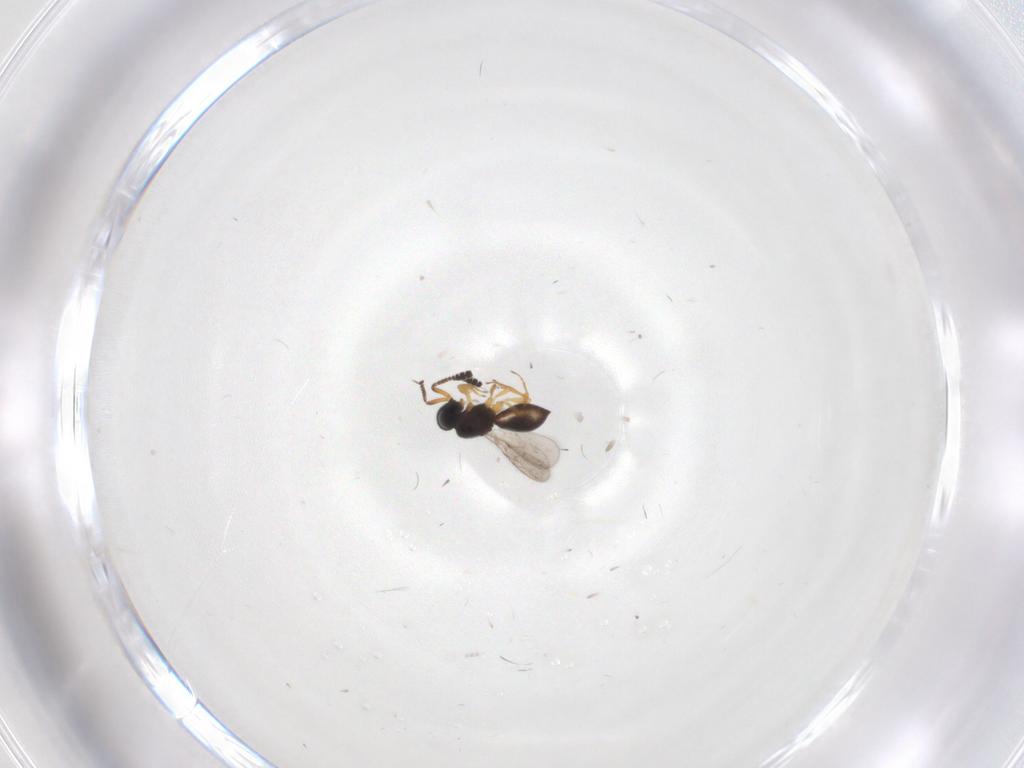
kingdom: Animalia
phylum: Arthropoda
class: Insecta
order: Hymenoptera
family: Scelionidae
